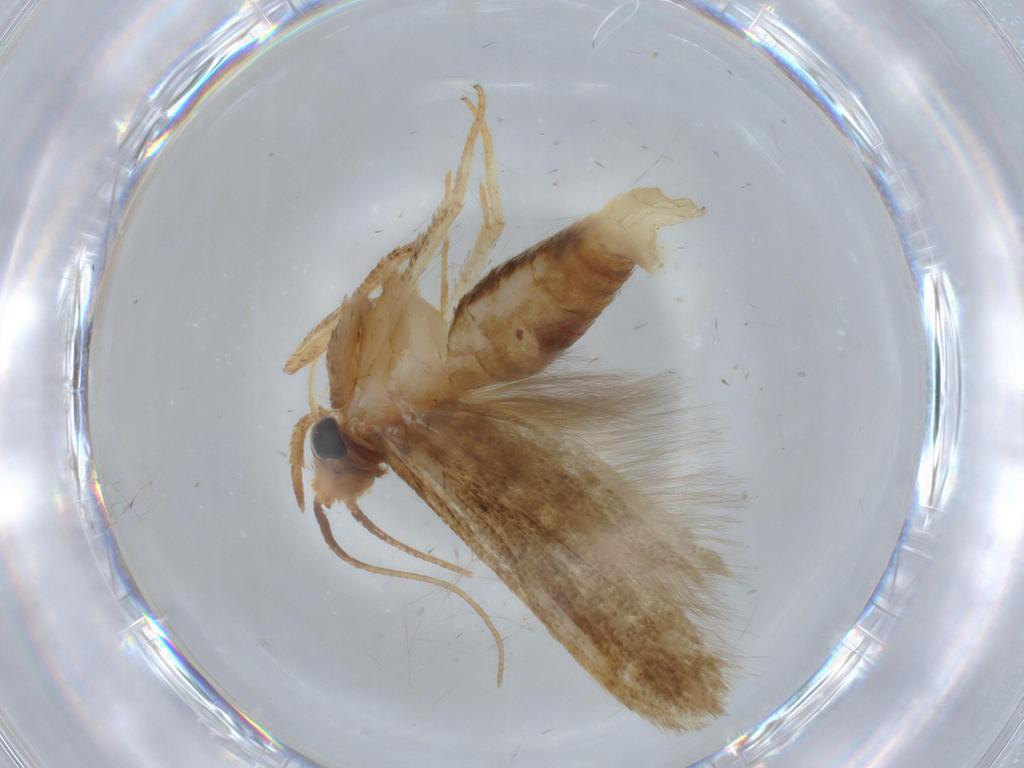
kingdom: Animalia
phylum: Arthropoda
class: Insecta
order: Lepidoptera
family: Blastobasidae
